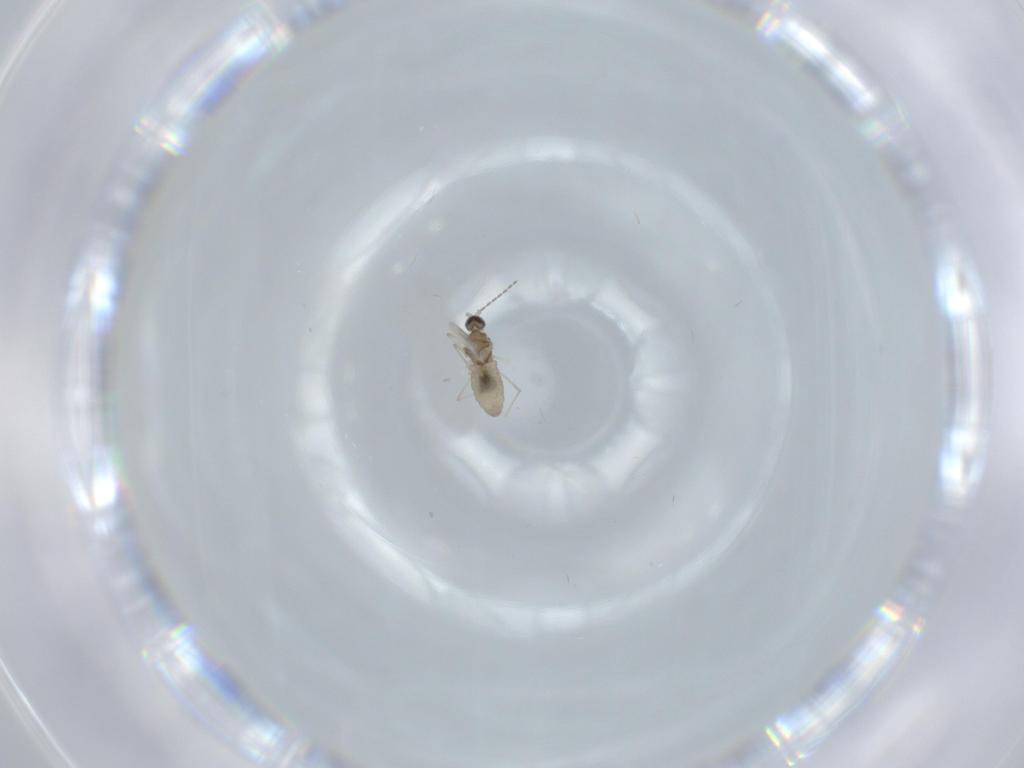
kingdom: Animalia
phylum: Arthropoda
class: Insecta
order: Diptera
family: Cecidomyiidae
